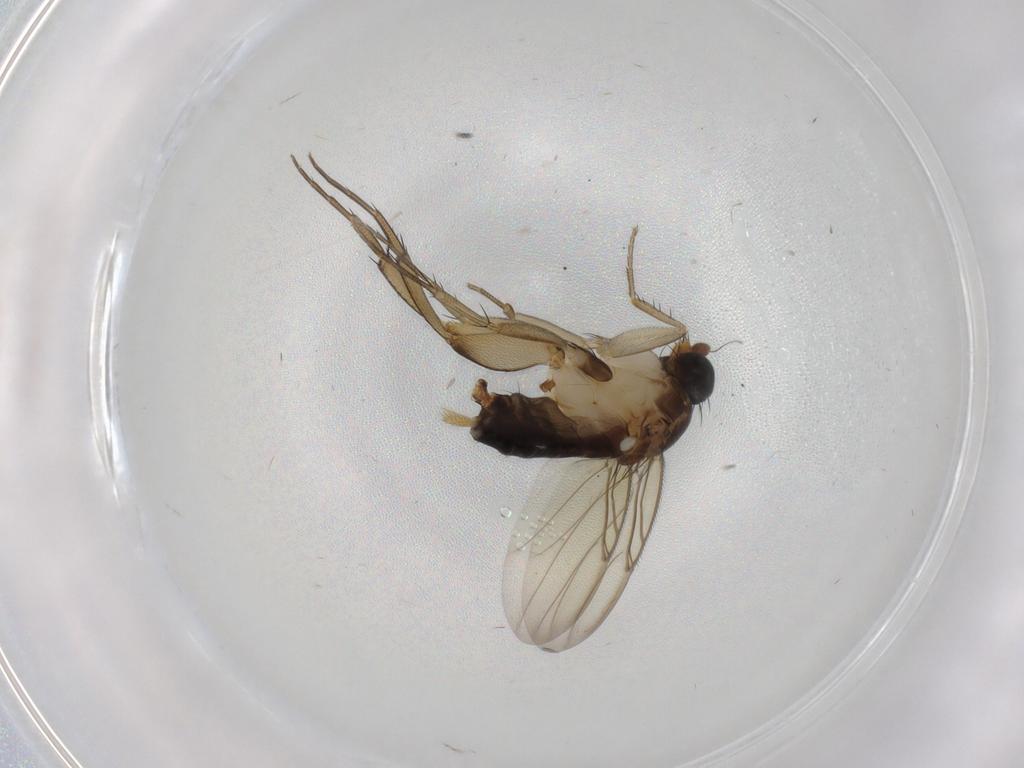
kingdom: Animalia
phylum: Arthropoda
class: Insecta
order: Diptera
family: Phoridae
